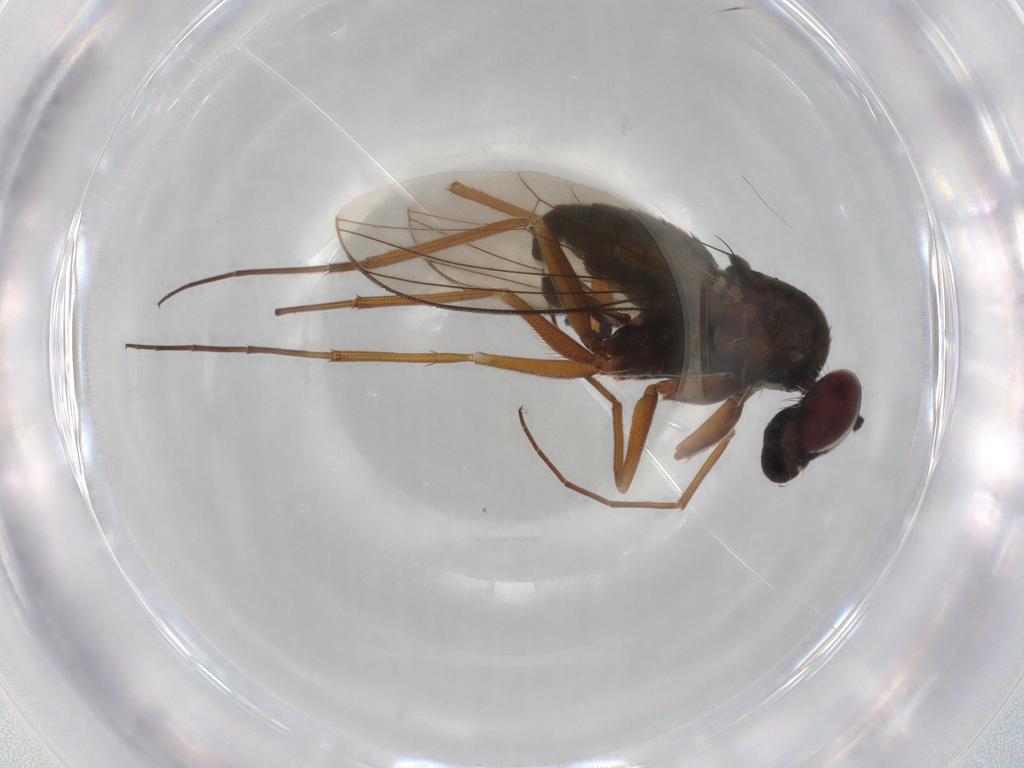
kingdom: Animalia
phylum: Arthropoda
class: Insecta
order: Diptera
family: Dolichopodidae
